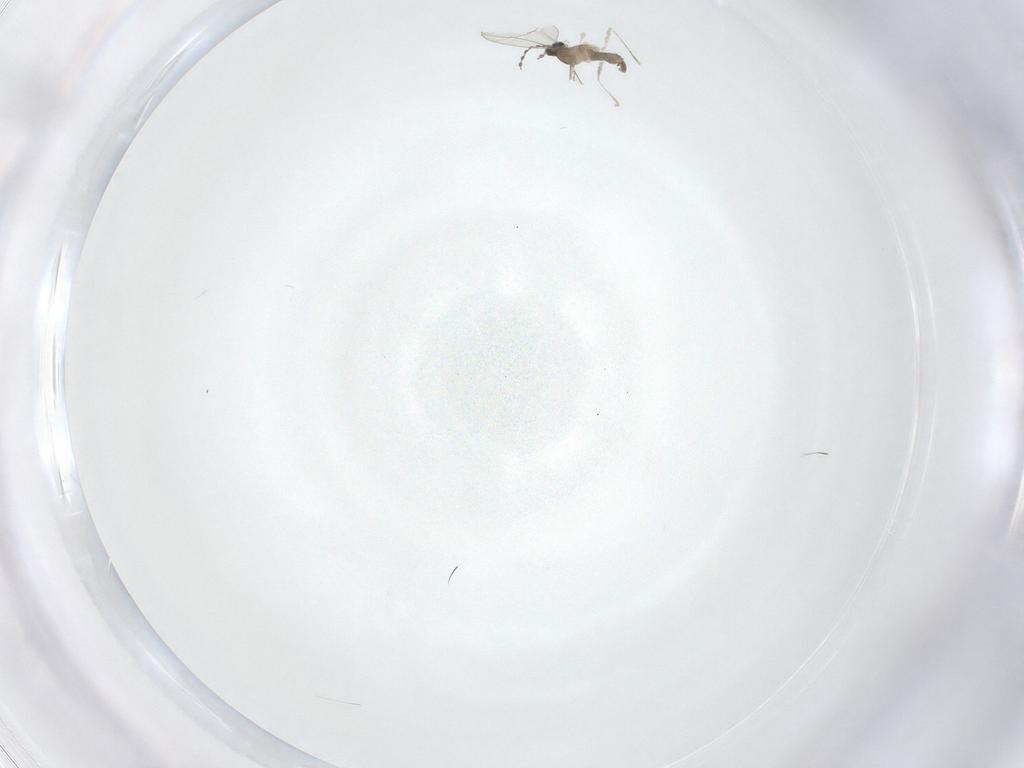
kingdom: Animalia
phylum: Arthropoda
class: Insecta
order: Diptera
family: Cecidomyiidae
